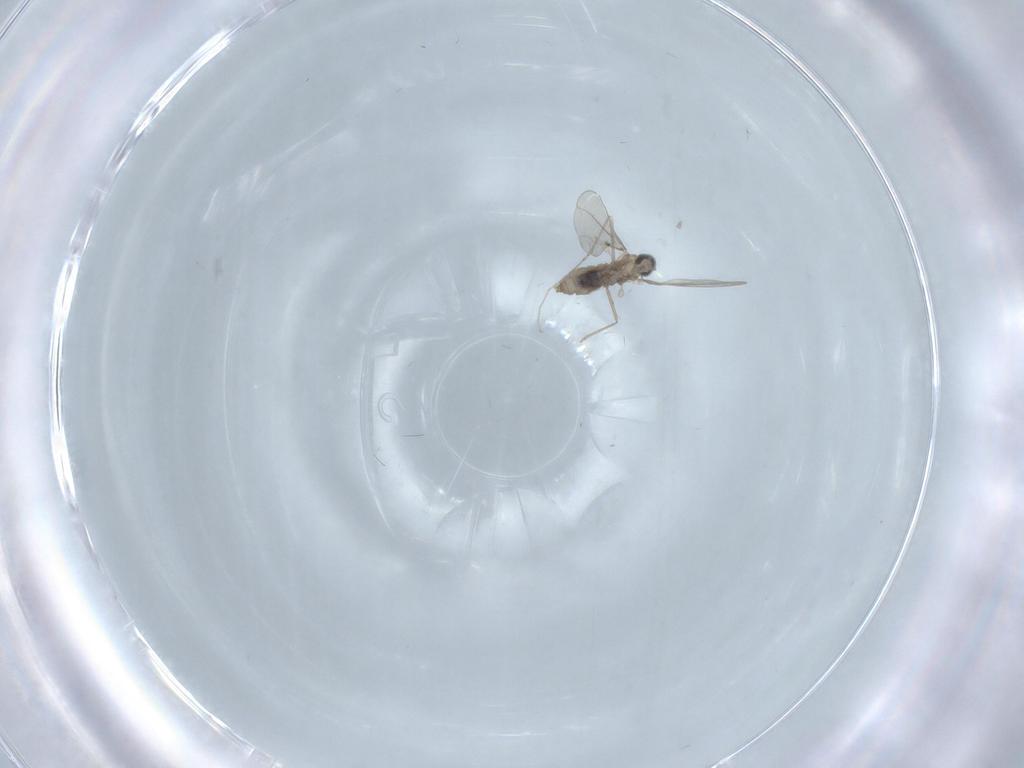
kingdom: Animalia
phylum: Arthropoda
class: Insecta
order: Diptera
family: Cecidomyiidae
